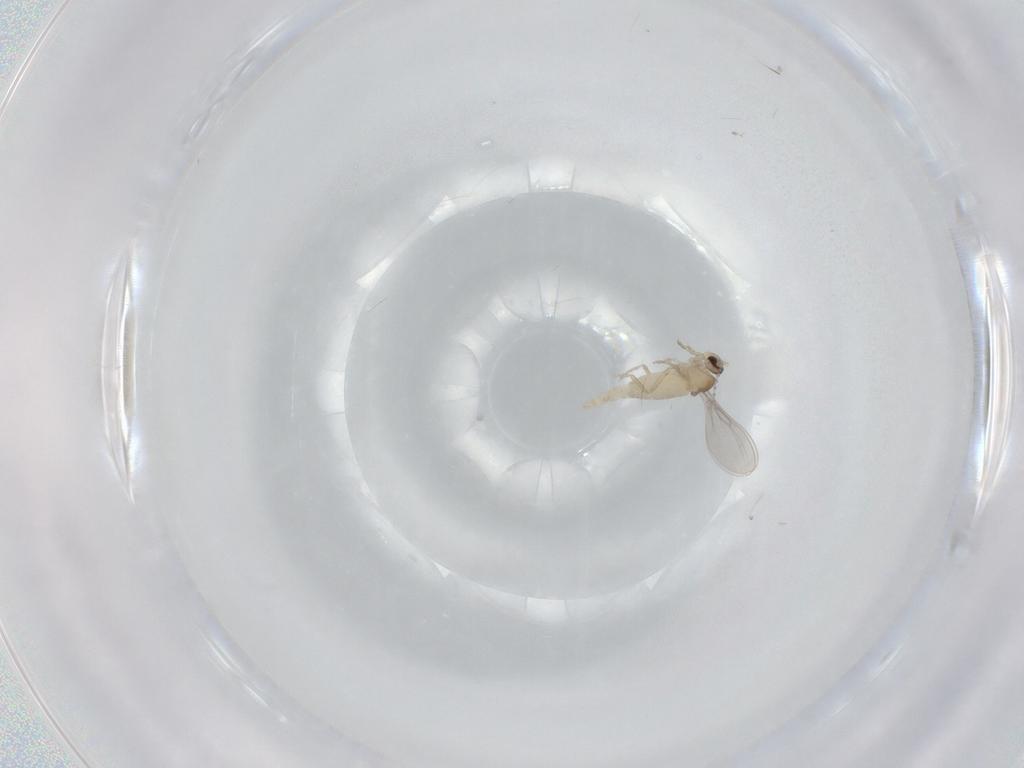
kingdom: Animalia
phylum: Arthropoda
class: Insecta
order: Diptera
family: Cecidomyiidae
